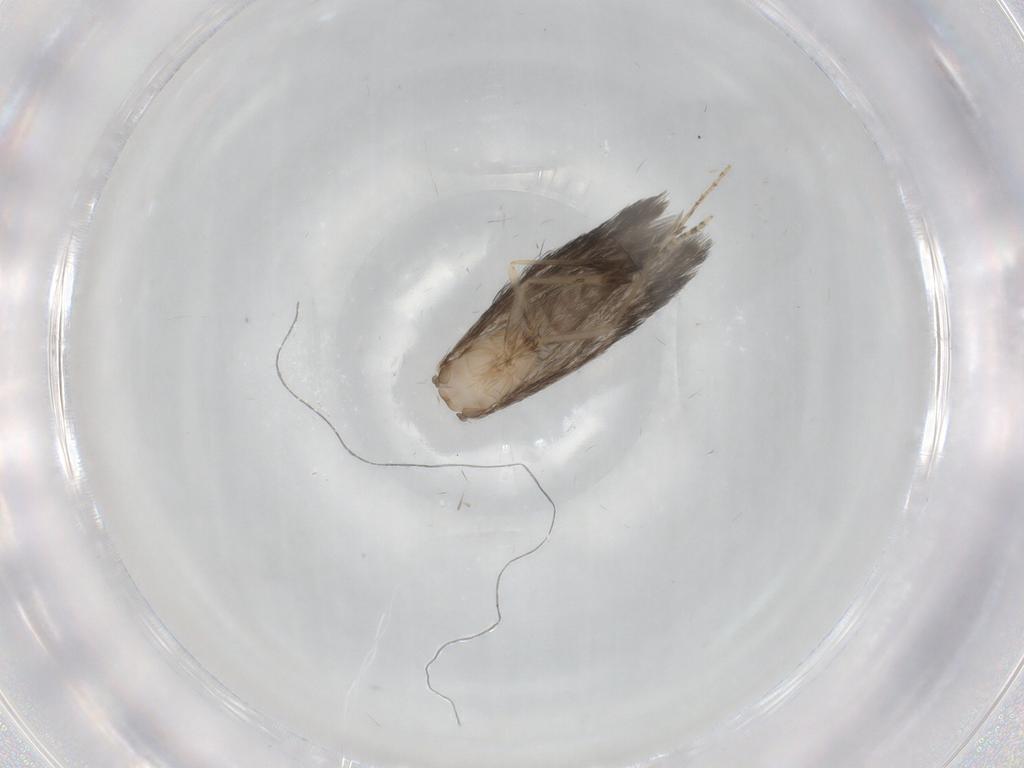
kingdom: Animalia
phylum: Arthropoda
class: Insecta
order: Trichoptera
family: Hydroptilidae
